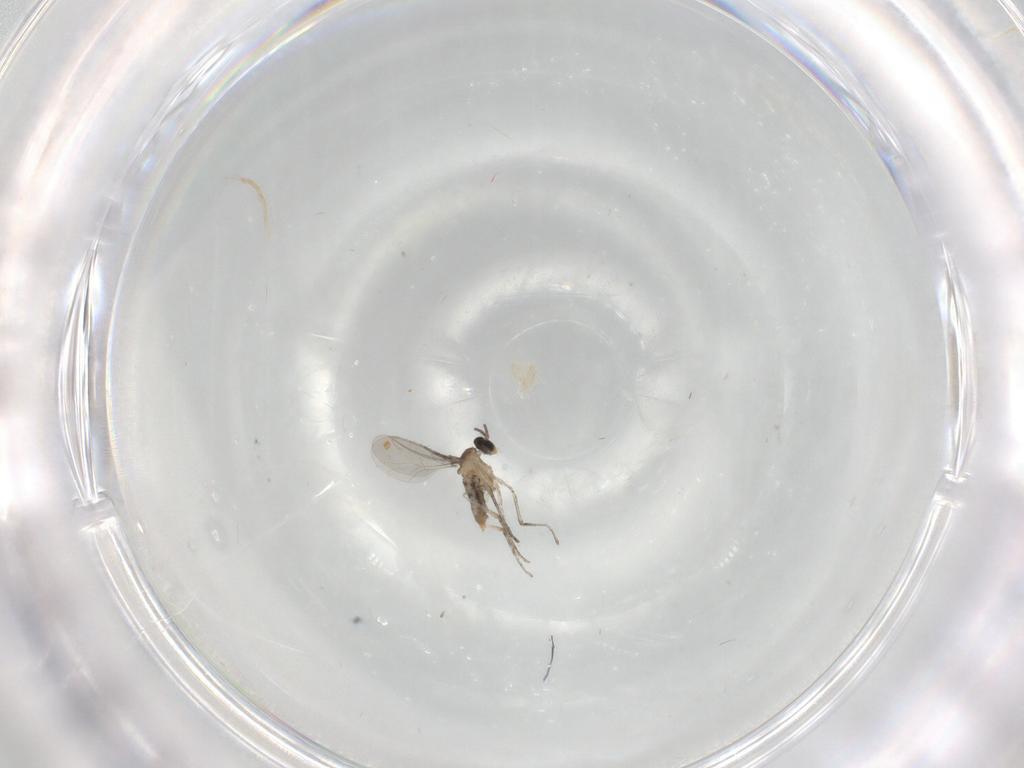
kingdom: Animalia
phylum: Arthropoda
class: Insecta
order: Diptera
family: Cecidomyiidae
